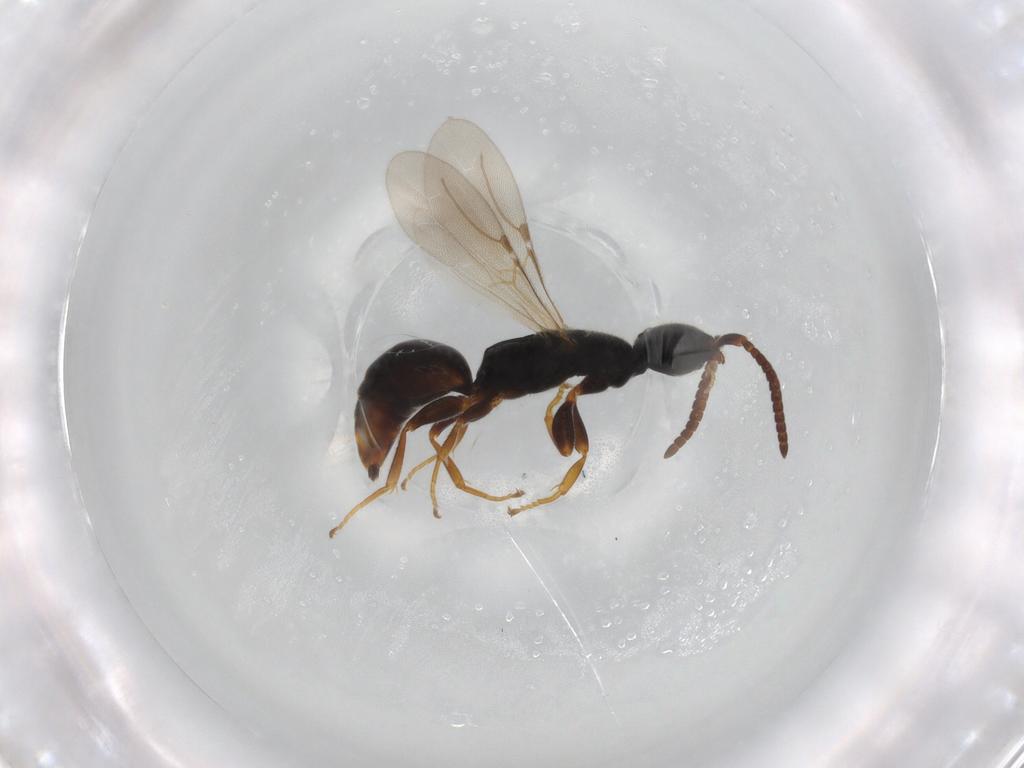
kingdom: Animalia
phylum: Arthropoda
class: Insecta
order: Hymenoptera
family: Bethylidae
